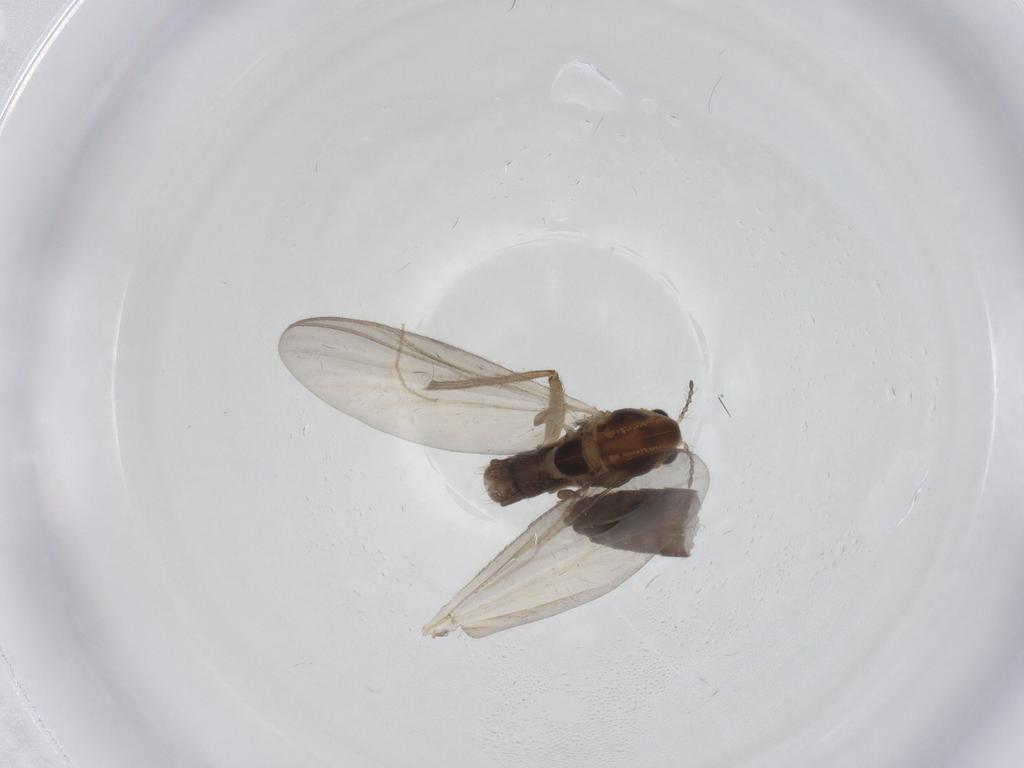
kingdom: Animalia
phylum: Arthropoda
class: Insecta
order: Diptera
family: Chironomidae
